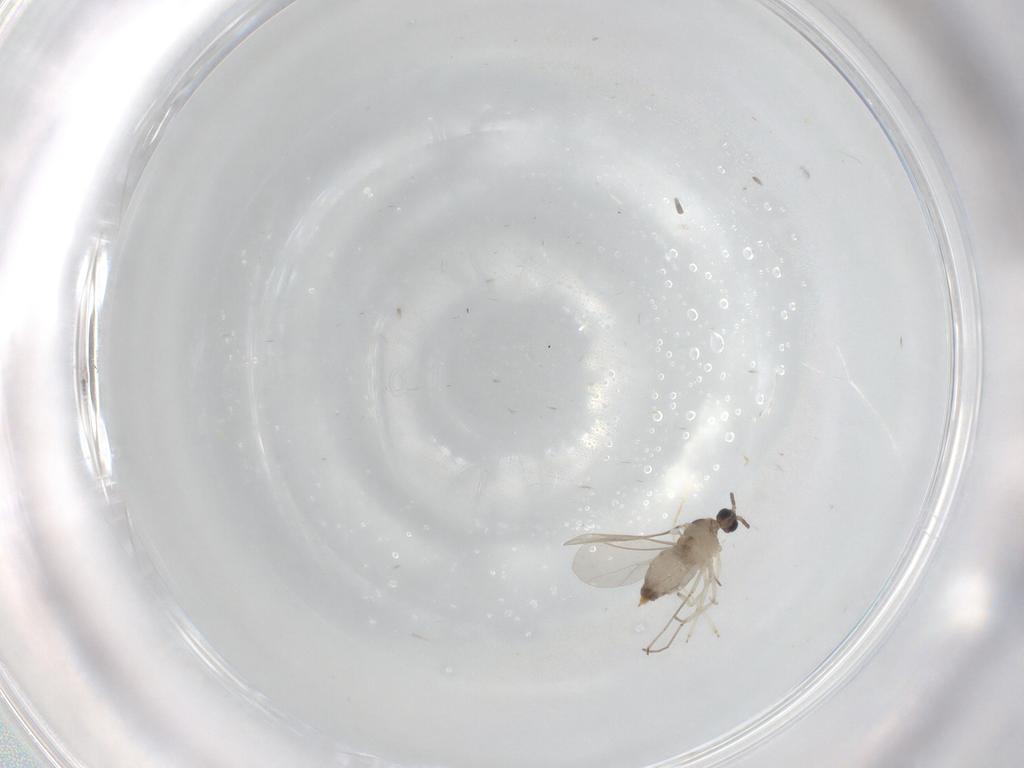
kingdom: Animalia
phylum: Arthropoda
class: Insecta
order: Diptera
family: Cecidomyiidae
